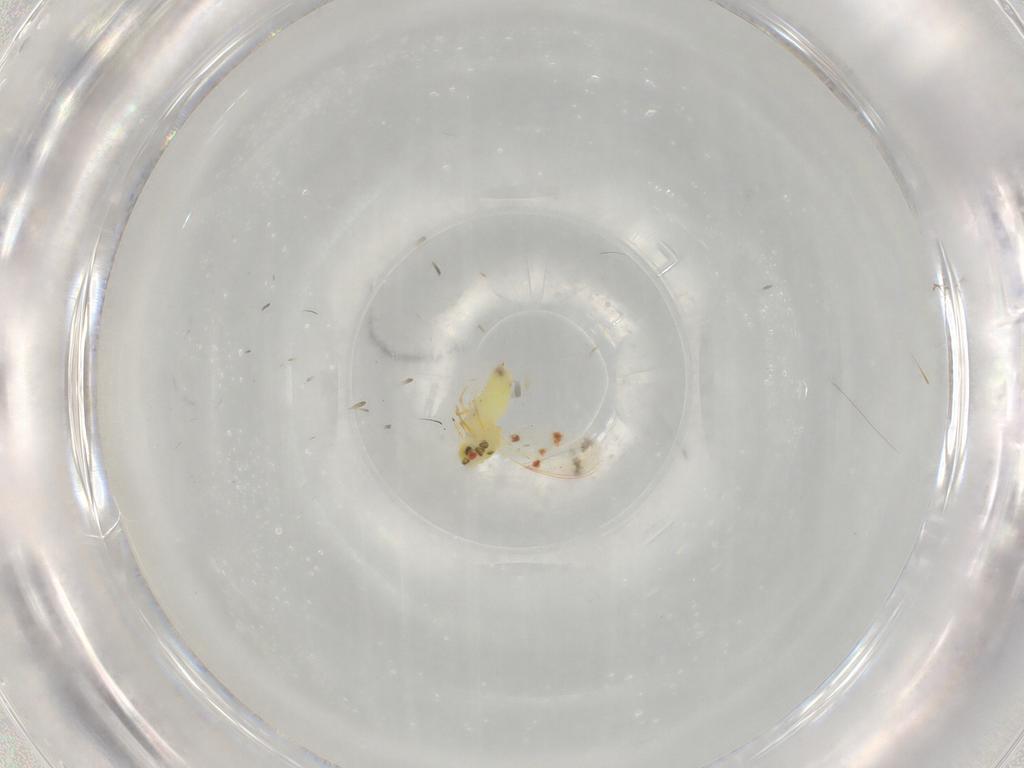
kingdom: Animalia
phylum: Arthropoda
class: Insecta
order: Hemiptera
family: Aleyrodidae
